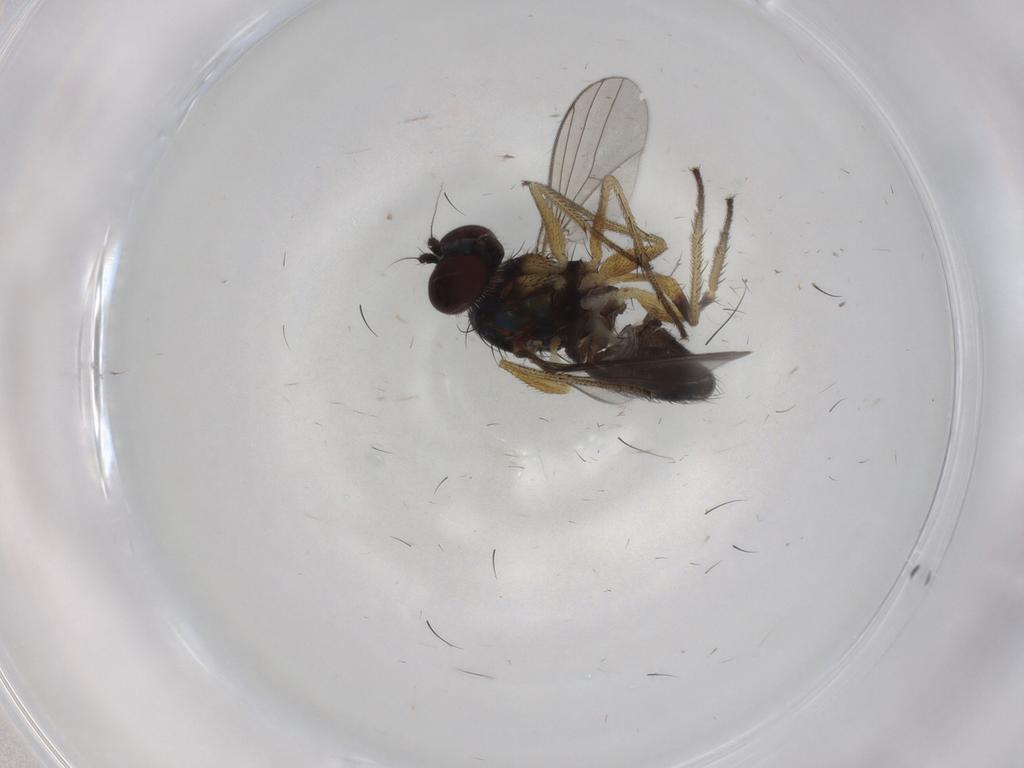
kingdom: Animalia
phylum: Arthropoda
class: Insecta
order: Diptera
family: Dolichopodidae
